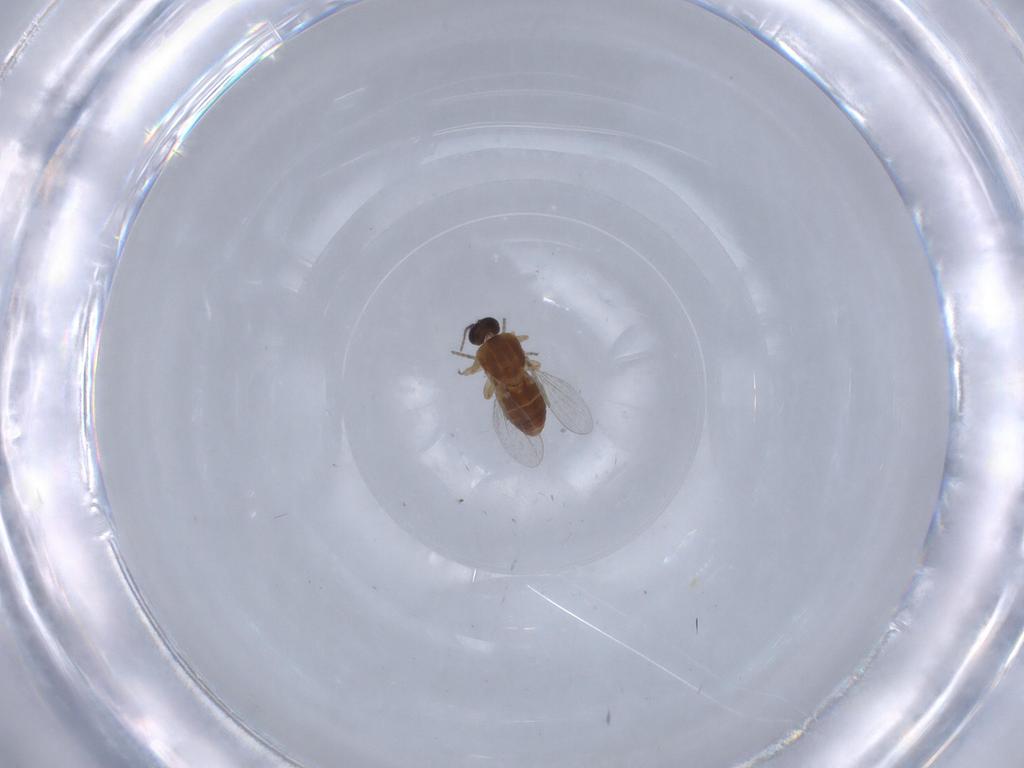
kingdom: Animalia
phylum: Arthropoda
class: Insecta
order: Diptera
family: Ceratopogonidae
